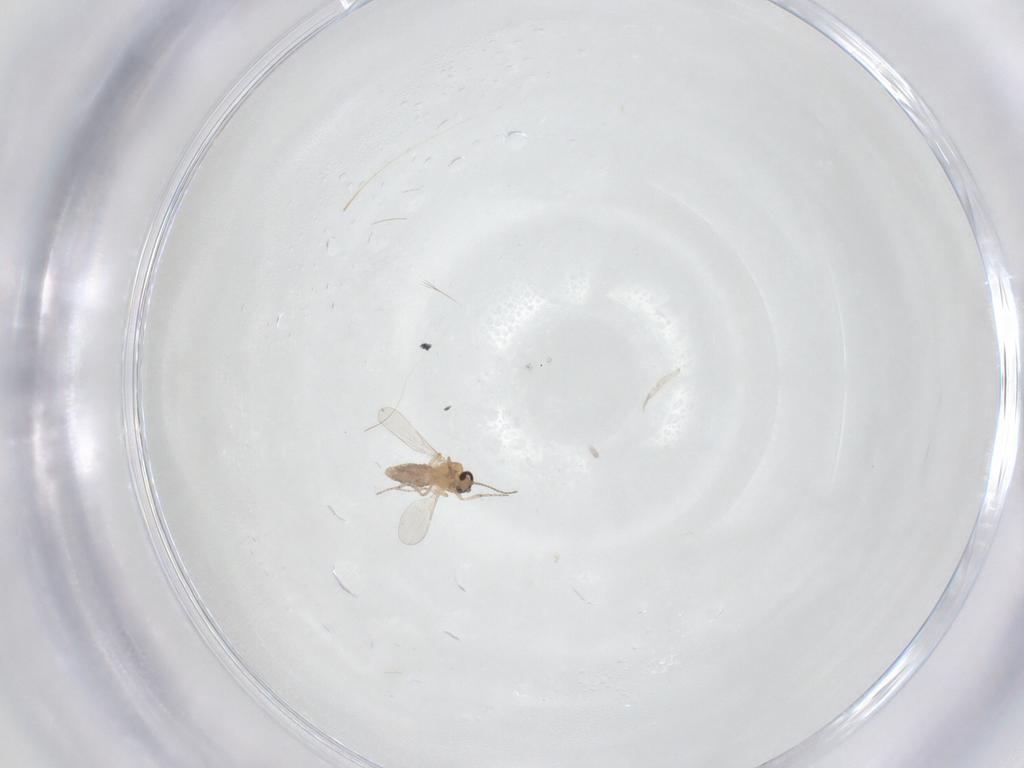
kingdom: Animalia
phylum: Arthropoda
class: Insecta
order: Diptera
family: Ceratopogonidae
